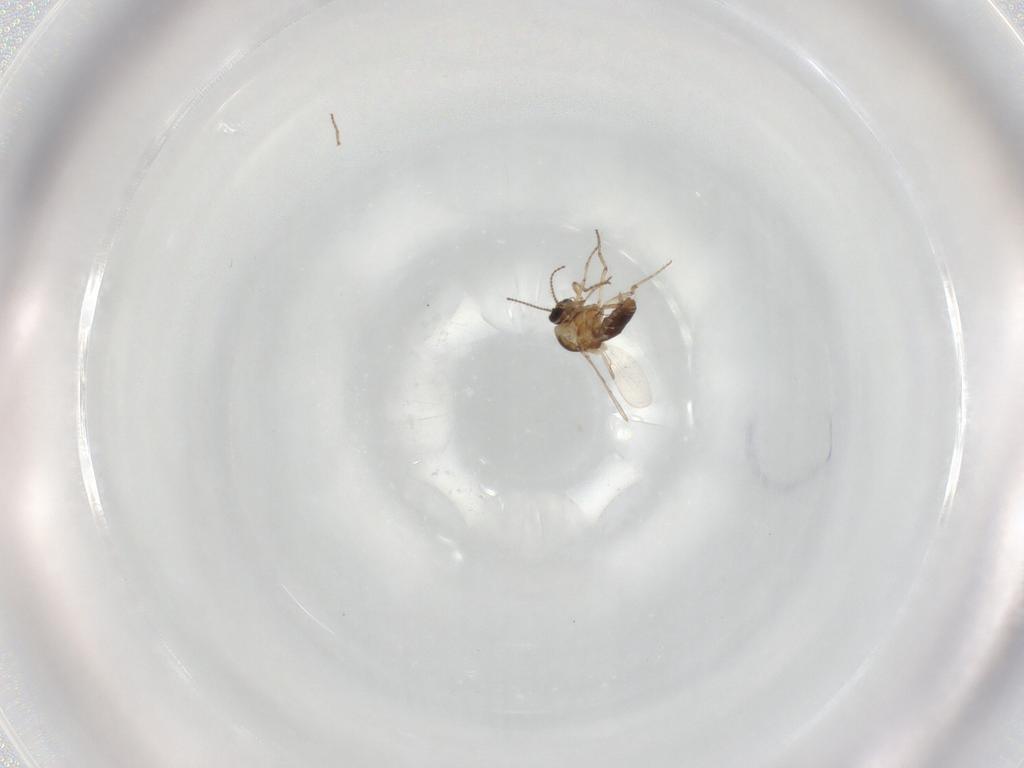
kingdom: Animalia
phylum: Arthropoda
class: Insecta
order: Diptera
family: Ceratopogonidae
